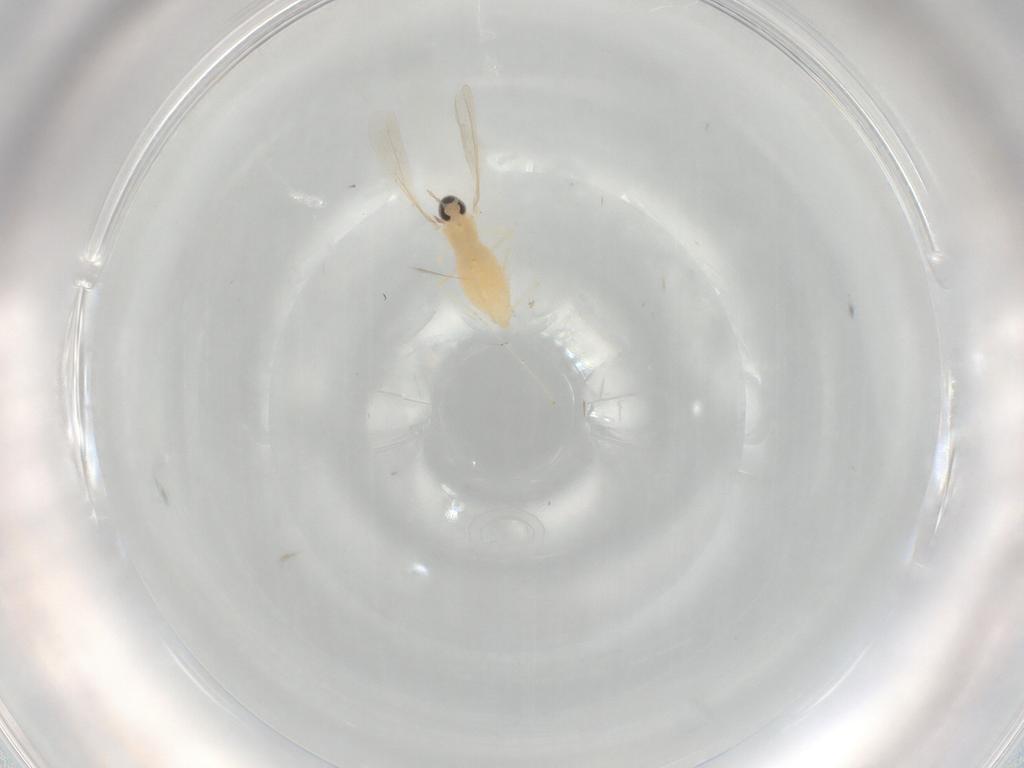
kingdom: Animalia
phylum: Arthropoda
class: Insecta
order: Diptera
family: Cecidomyiidae
